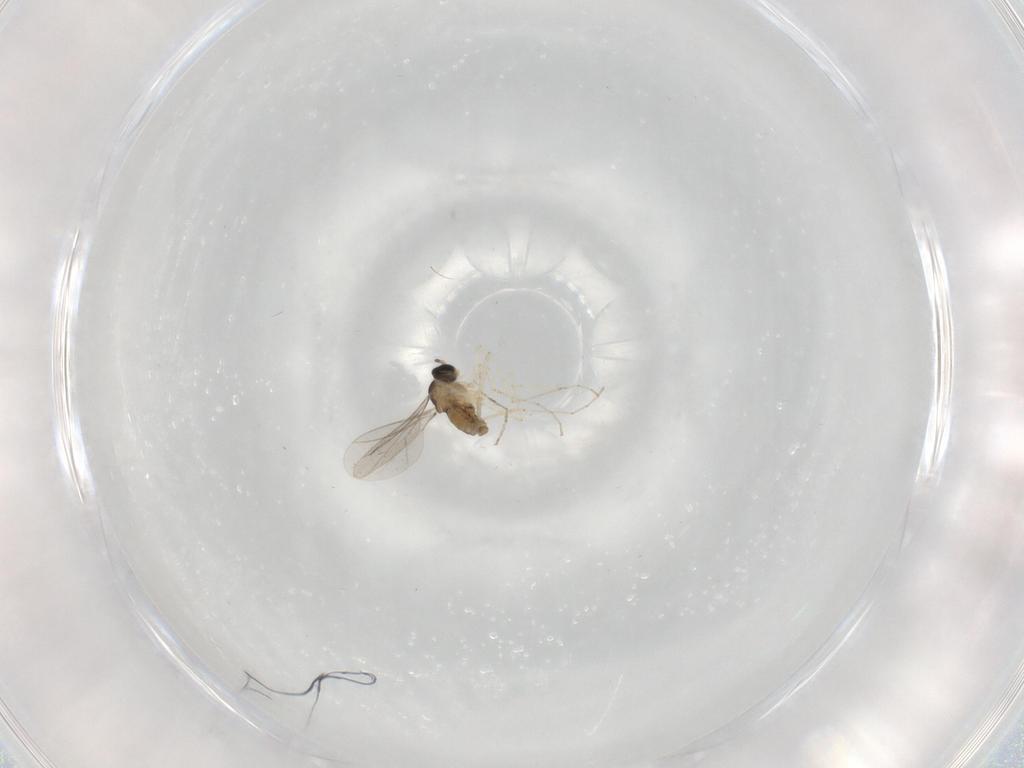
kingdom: Animalia
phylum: Arthropoda
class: Insecta
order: Diptera
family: Cecidomyiidae
